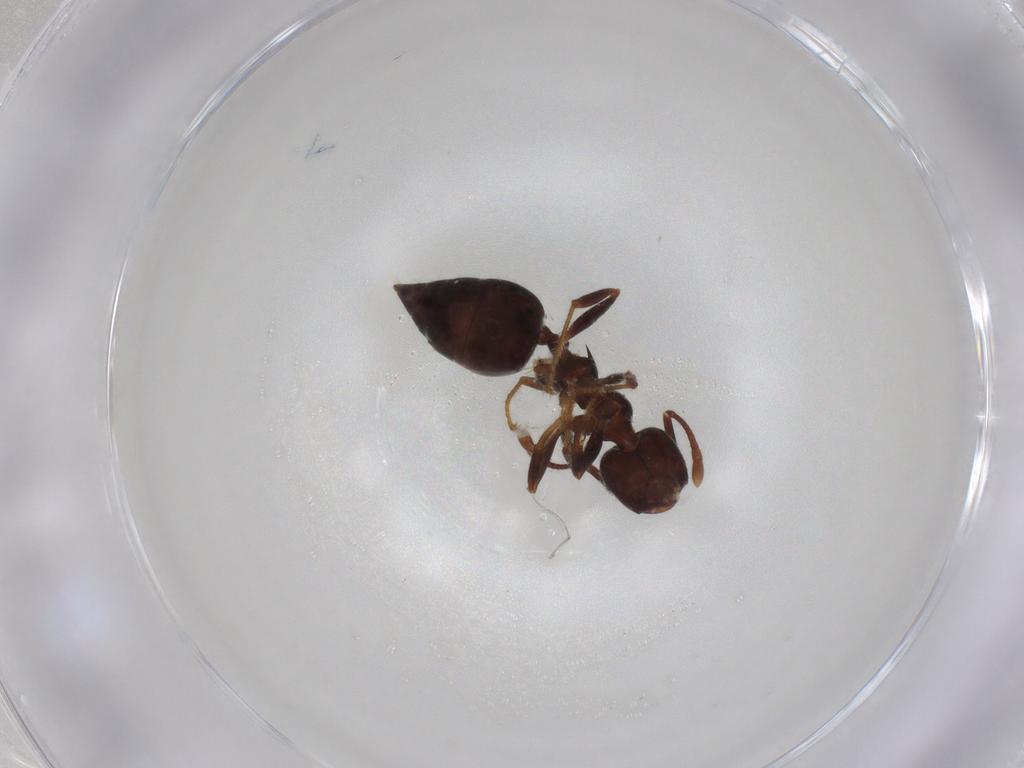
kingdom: Animalia
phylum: Arthropoda
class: Insecta
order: Hymenoptera
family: Formicidae
